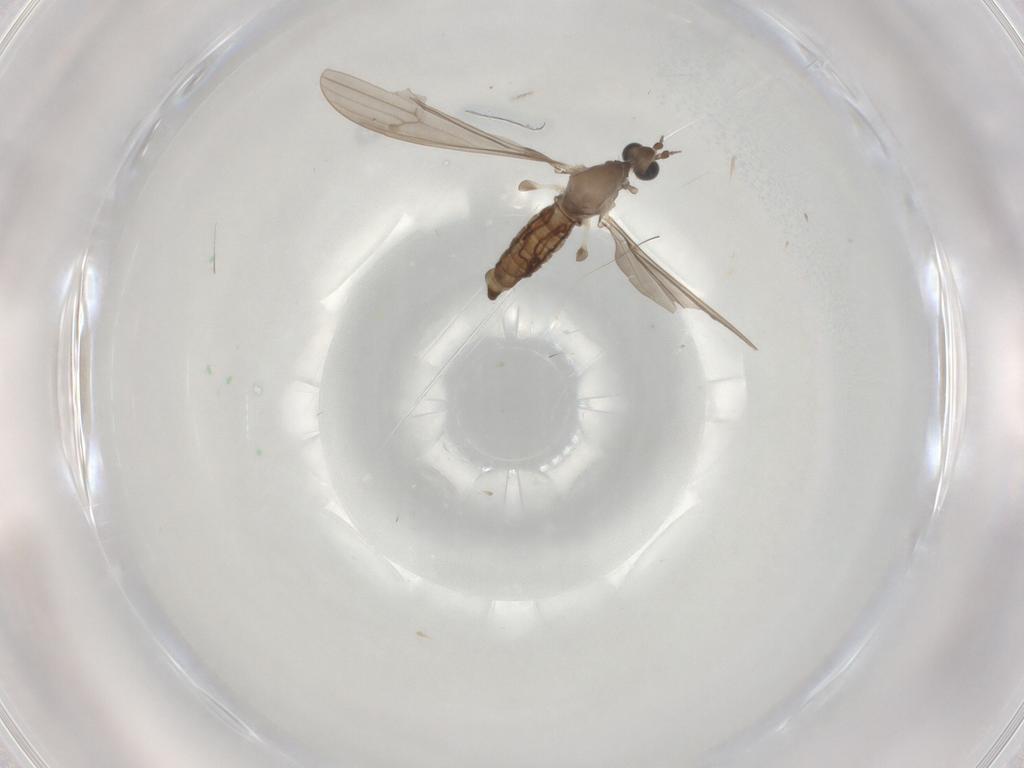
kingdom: Animalia
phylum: Arthropoda
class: Insecta
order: Diptera
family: Limoniidae
